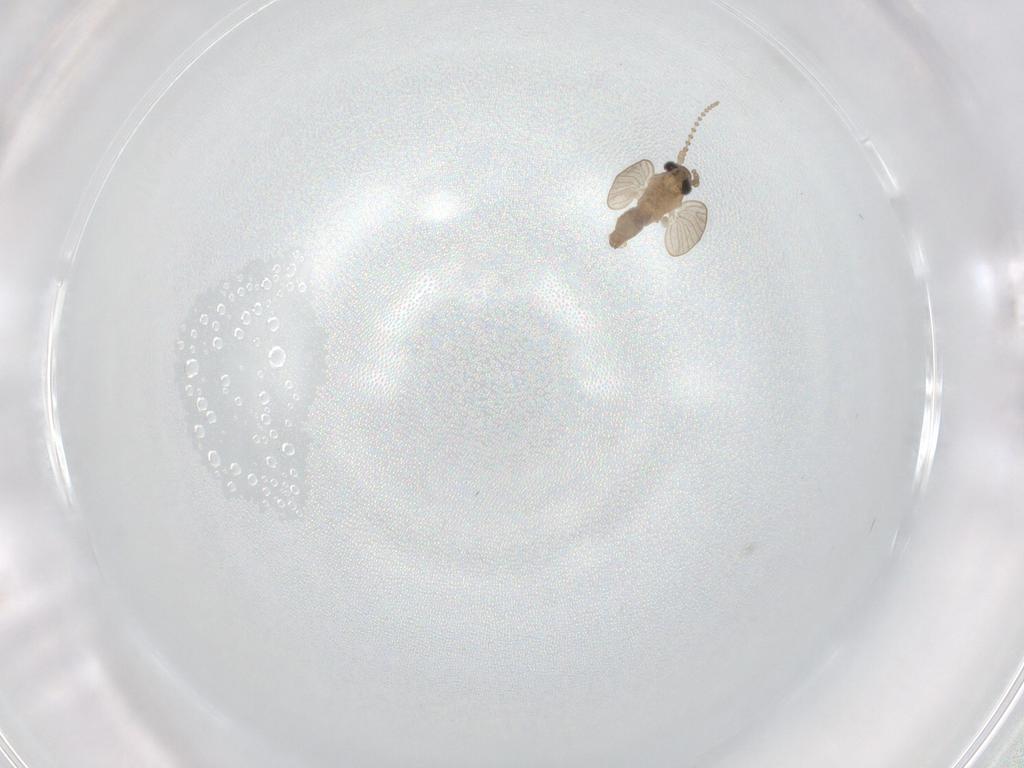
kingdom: Animalia
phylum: Arthropoda
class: Insecta
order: Diptera
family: Psychodidae
